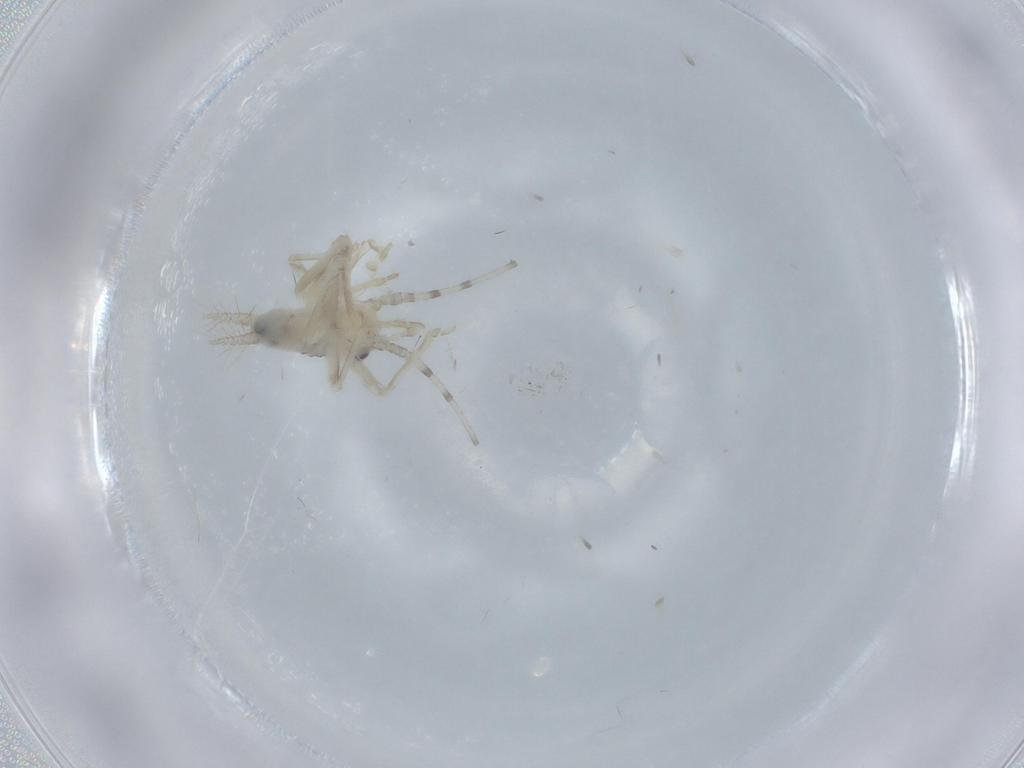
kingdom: Animalia
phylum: Arthropoda
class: Insecta
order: Orthoptera
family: Trigonidiidae
